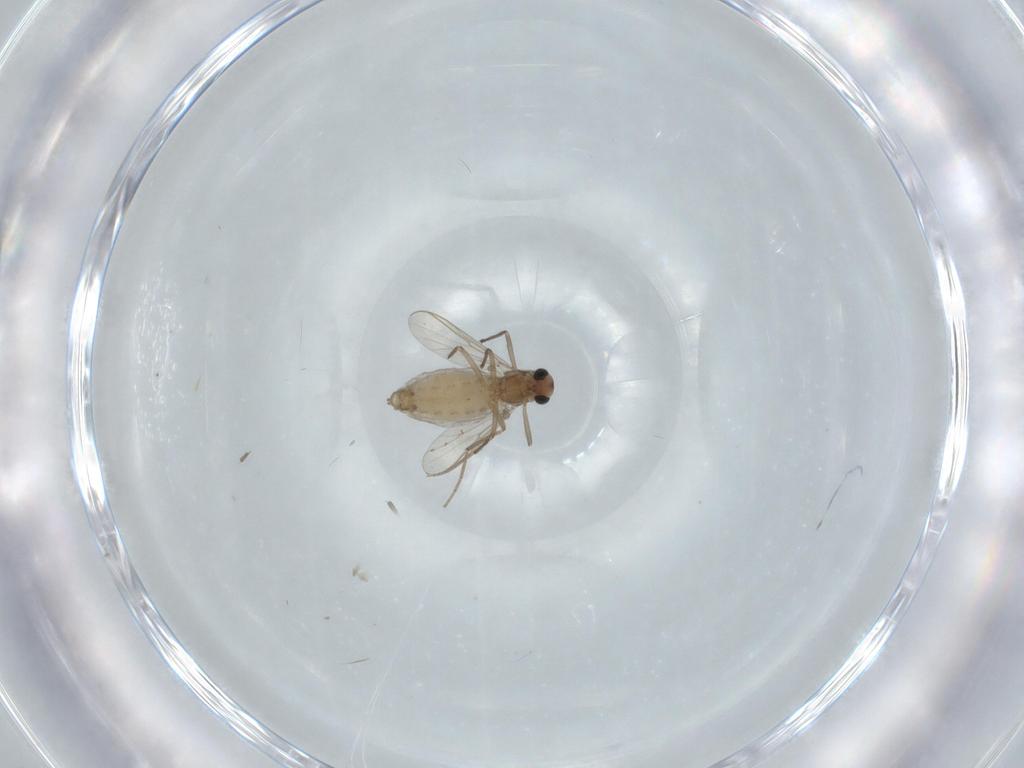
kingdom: Animalia
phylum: Arthropoda
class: Insecta
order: Diptera
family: Chironomidae
